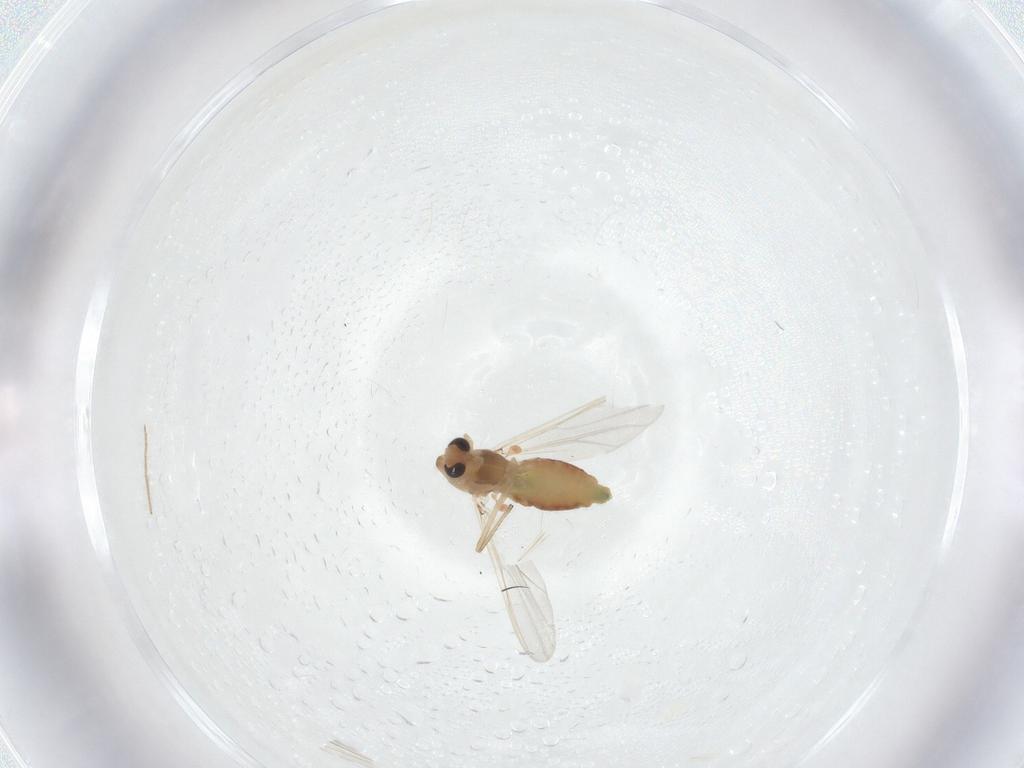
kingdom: Animalia
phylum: Arthropoda
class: Insecta
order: Diptera
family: Chironomidae
